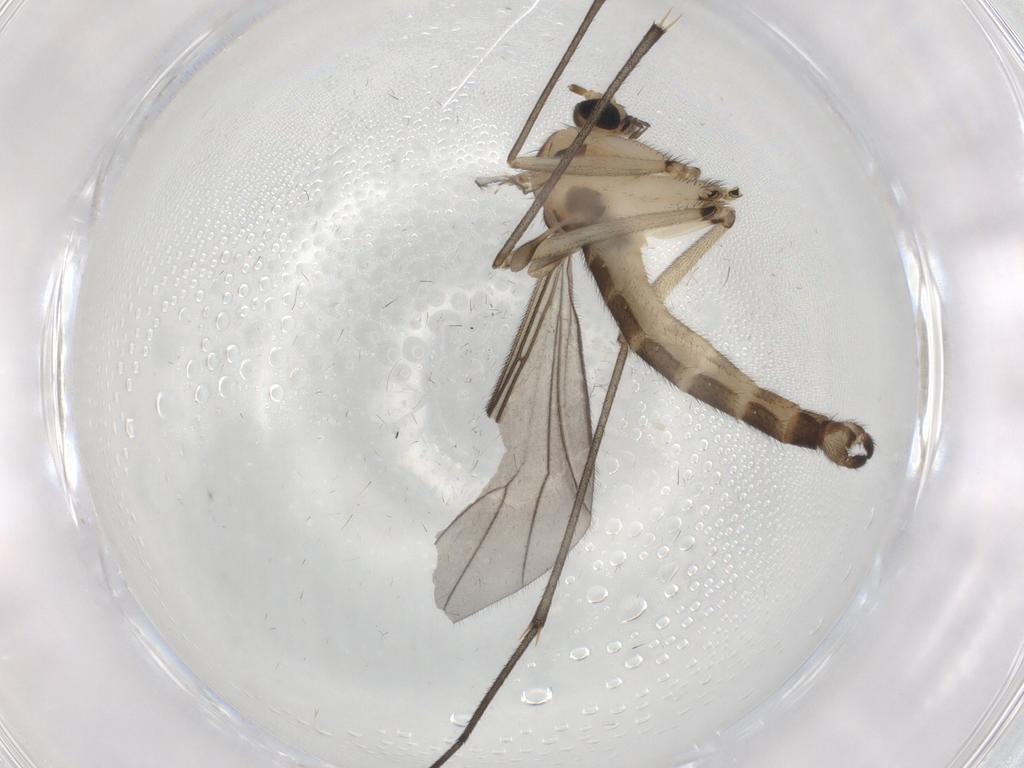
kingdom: Animalia
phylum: Arthropoda
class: Insecta
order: Diptera
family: Sciaridae
